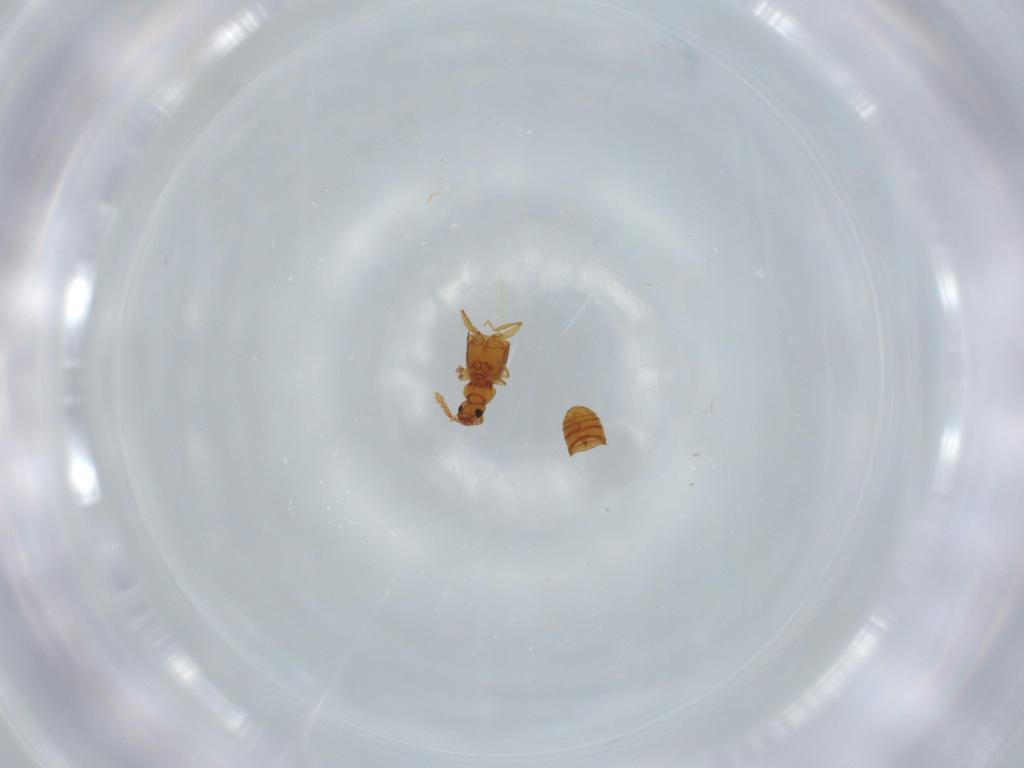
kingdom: Animalia
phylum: Arthropoda
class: Insecta
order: Coleoptera
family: Staphylinidae
